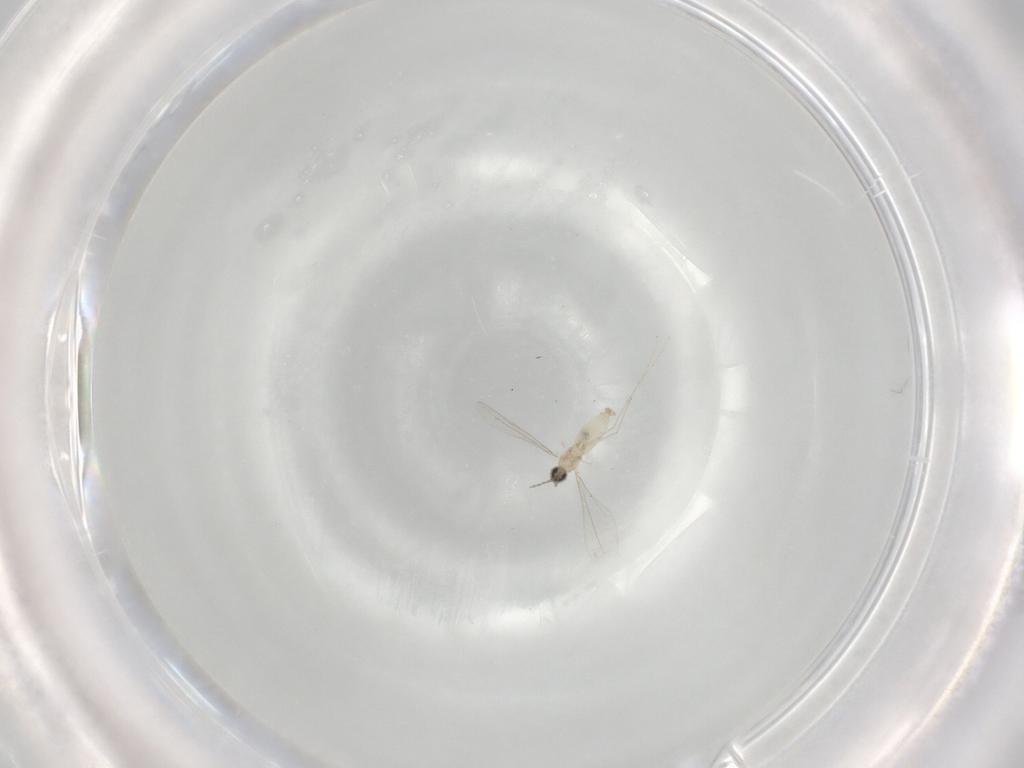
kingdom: Animalia
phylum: Arthropoda
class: Insecta
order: Diptera
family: Cecidomyiidae
